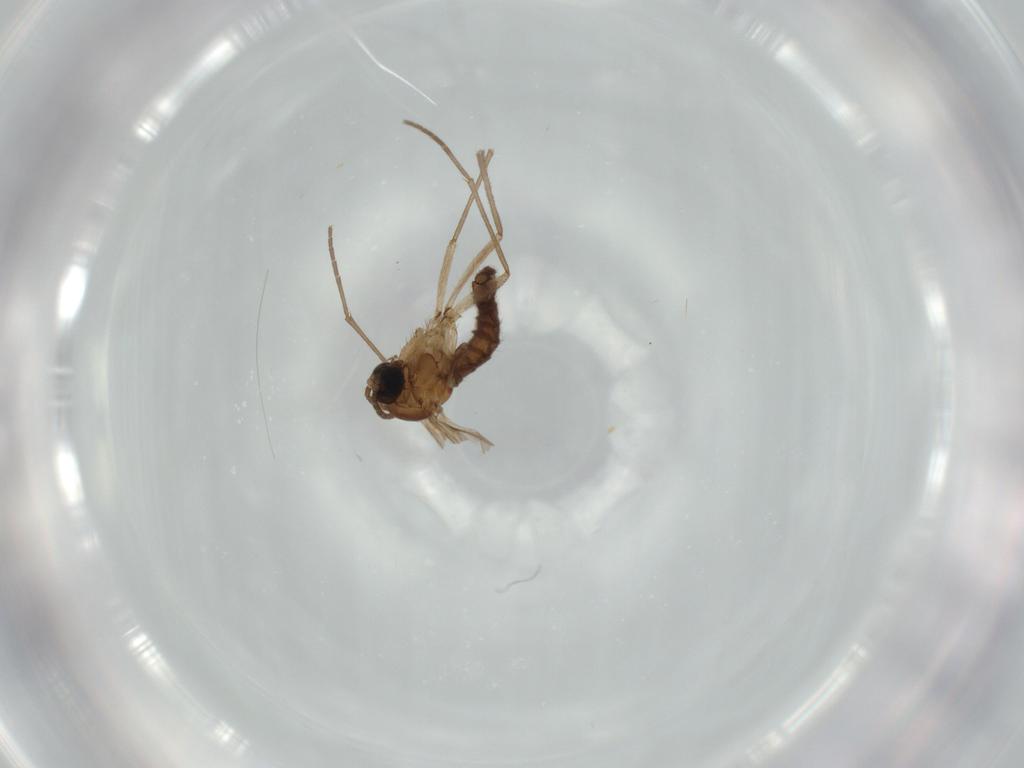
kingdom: Animalia
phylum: Arthropoda
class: Insecta
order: Diptera
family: Sciaridae
